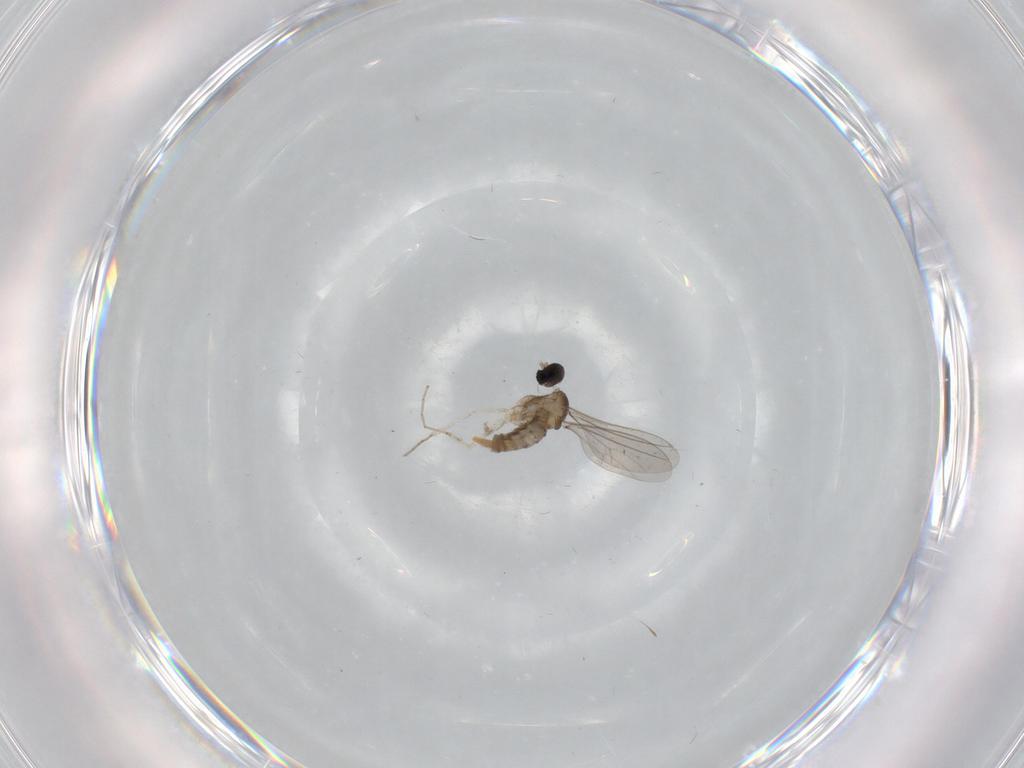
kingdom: Animalia
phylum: Arthropoda
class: Insecta
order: Diptera
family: Cecidomyiidae
